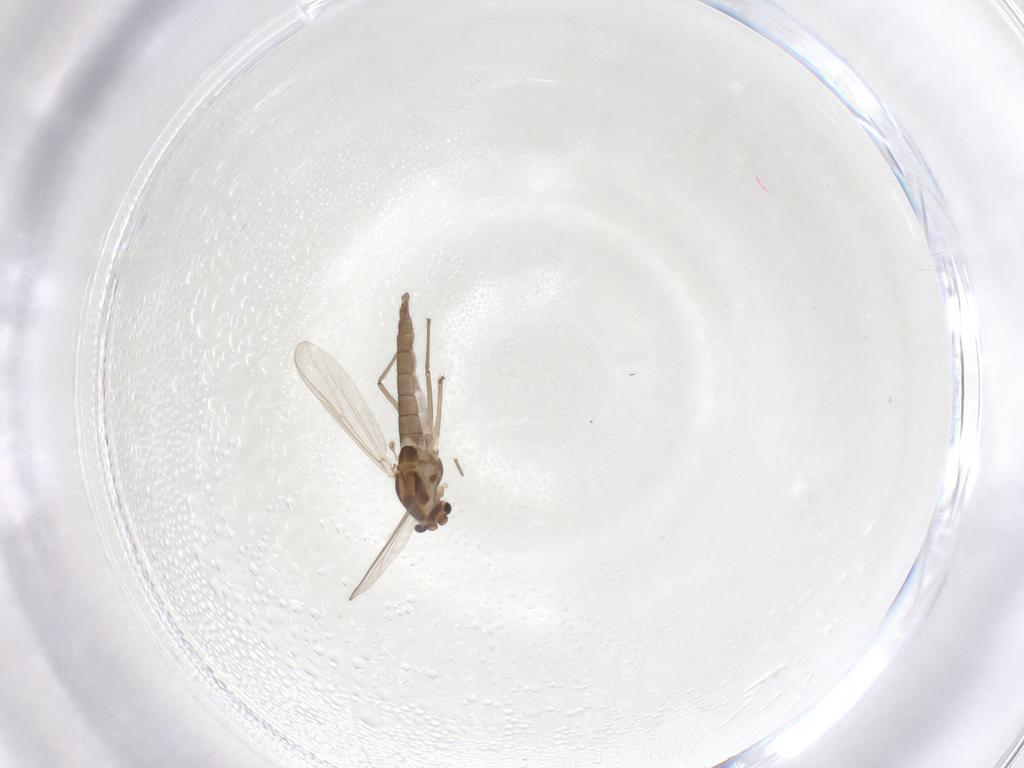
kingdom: Animalia
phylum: Arthropoda
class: Insecta
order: Diptera
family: Chironomidae
